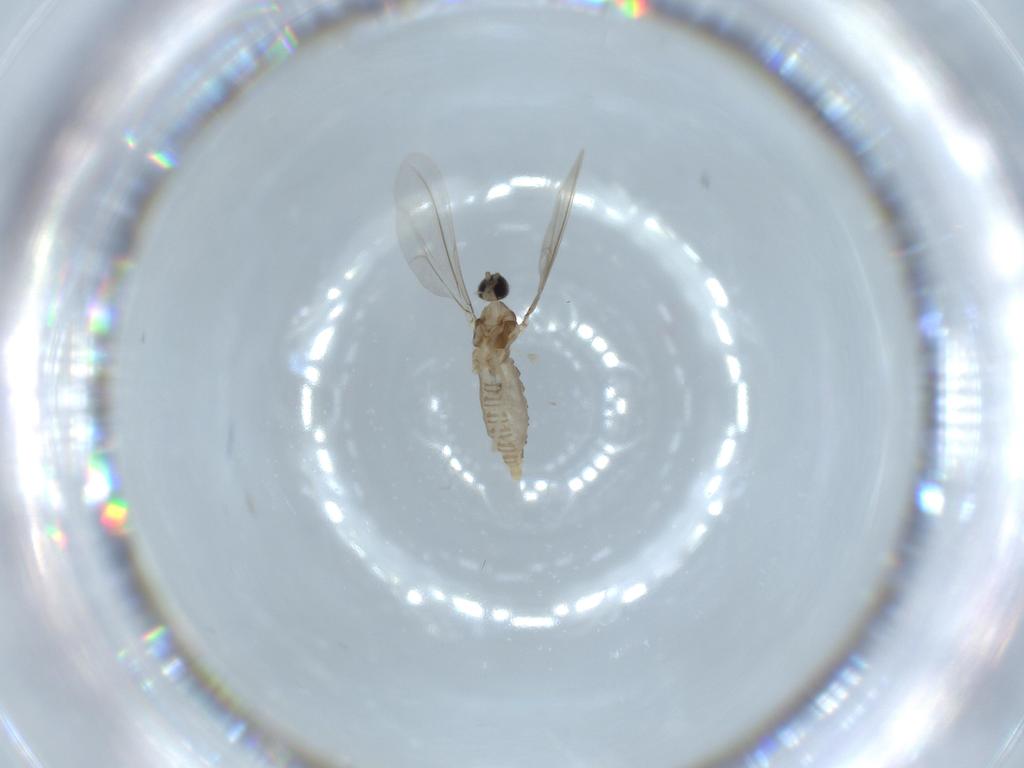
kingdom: Animalia
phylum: Arthropoda
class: Insecta
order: Diptera
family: Cecidomyiidae
